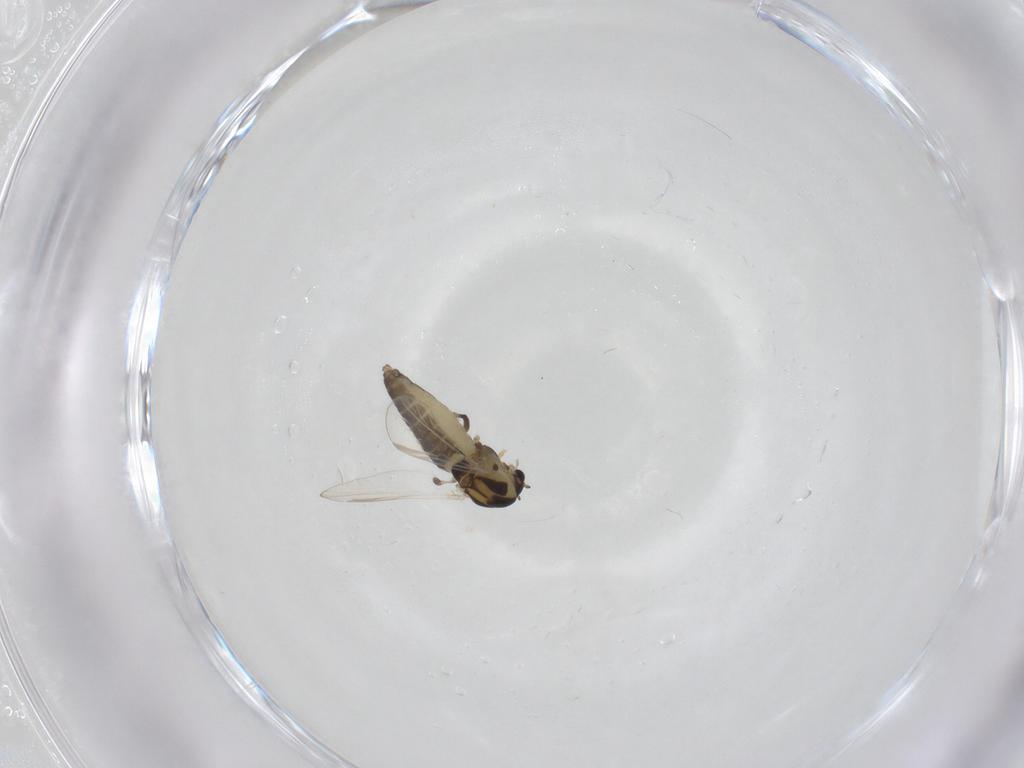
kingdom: Animalia
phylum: Arthropoda
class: Insecta
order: Diptera
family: Chironomidae
